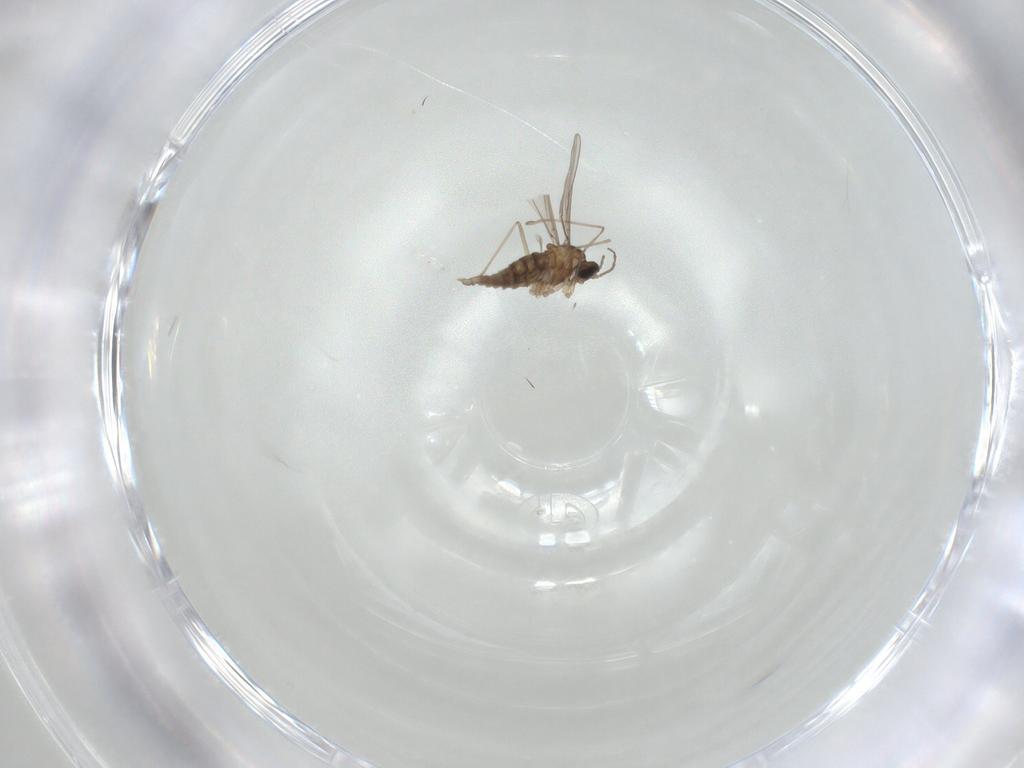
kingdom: Animalia
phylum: Arthropoda
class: Insecta
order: Diptera
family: Cecidomyiidae
